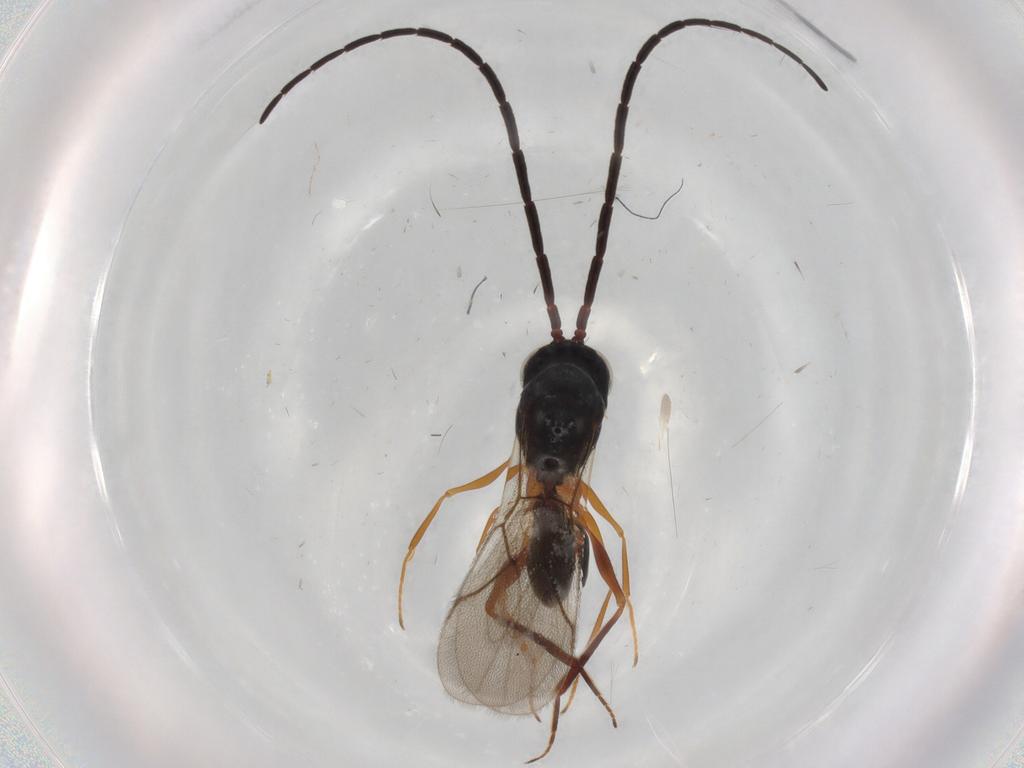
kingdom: Animalia
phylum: Arthropoda
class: Insecta
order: Hymenoptera
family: Figitidae
